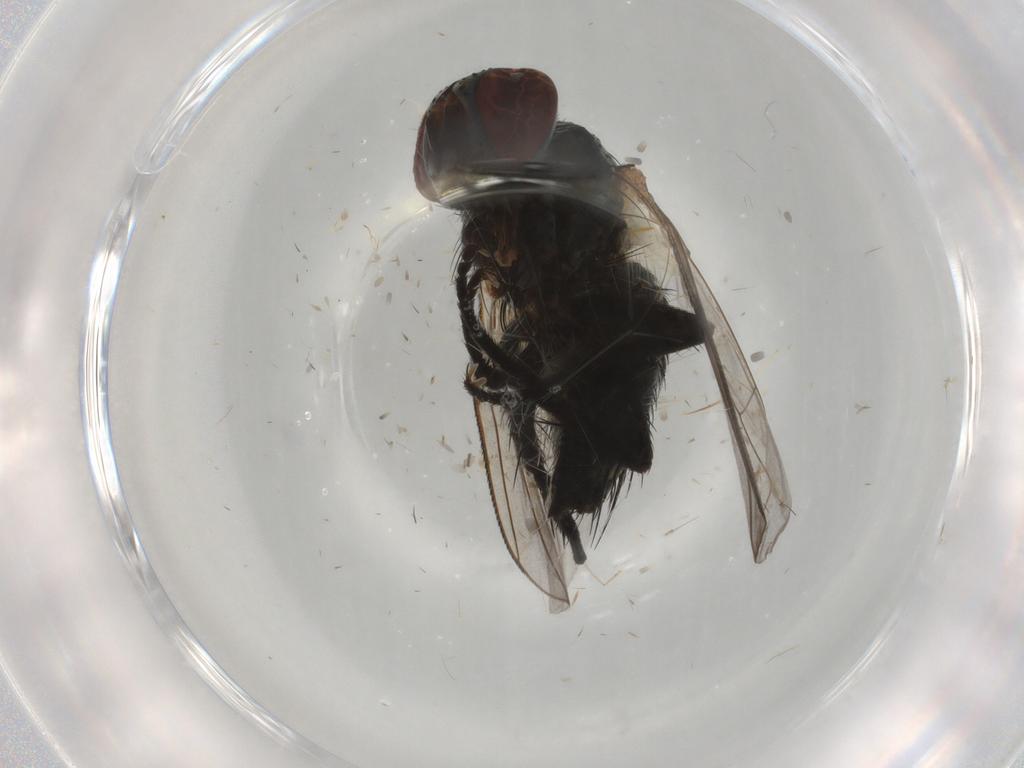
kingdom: Animalia
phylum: Arthropoda
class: Insecta
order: Diptera
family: Tachinidae
